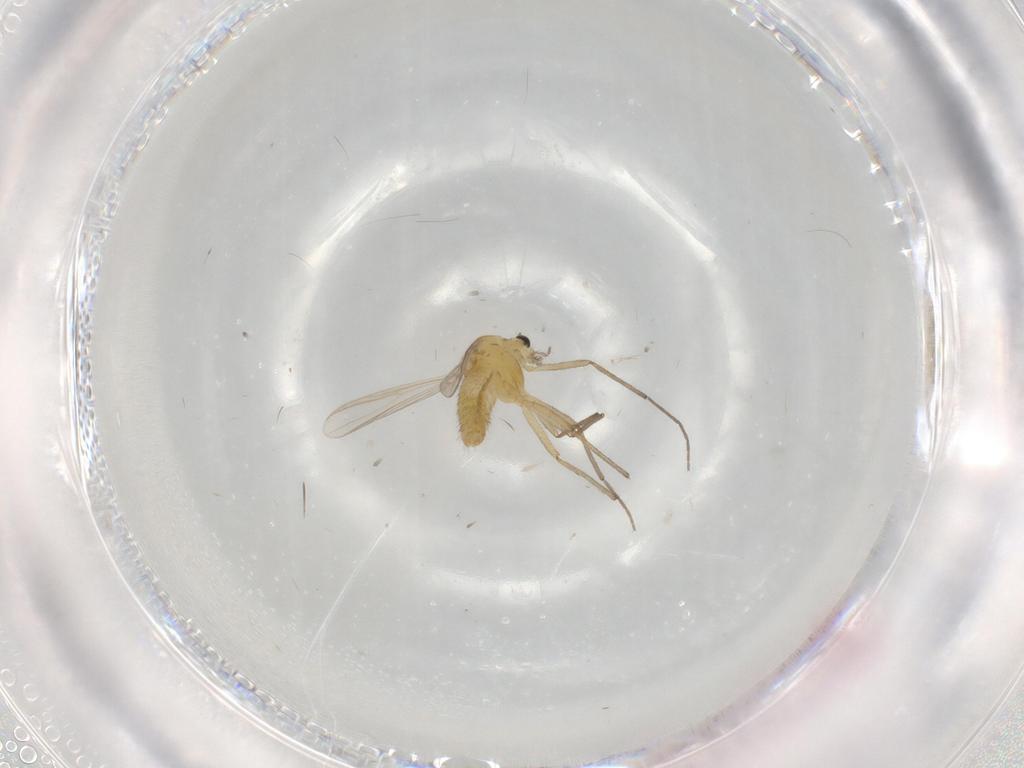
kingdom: Animalia
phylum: Arthropoda
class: Insecta
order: Diptera
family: Chironomidae
